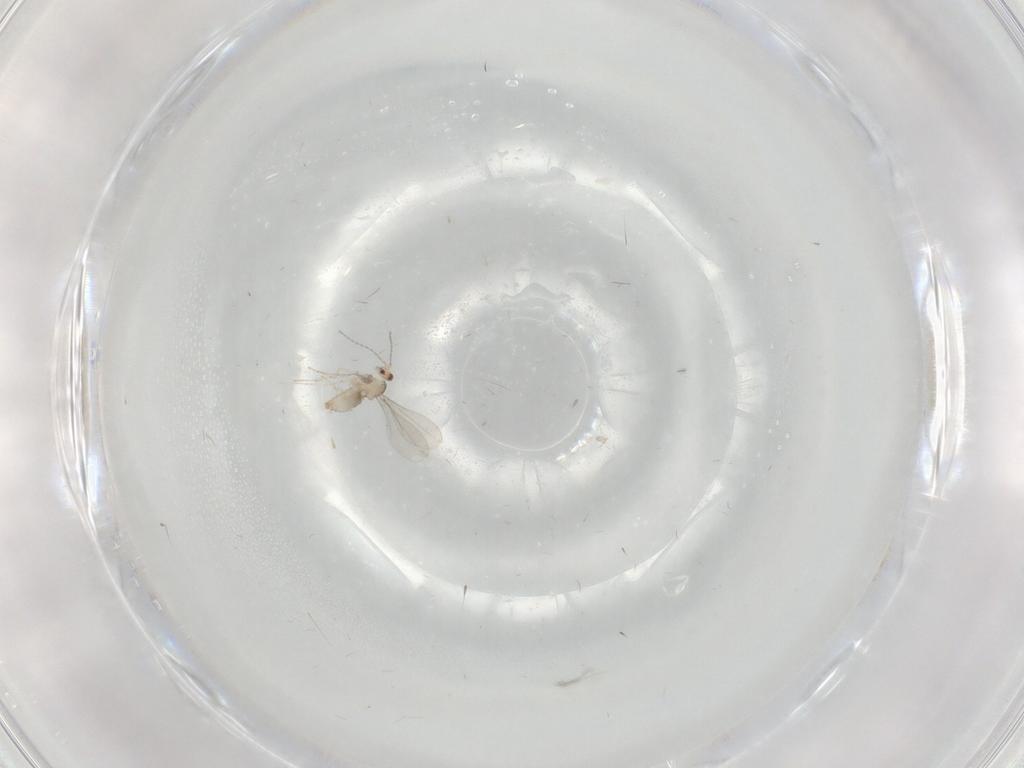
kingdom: Animalia
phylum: Arthropoda
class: Insecta
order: Diptera
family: Cecidomyiidae
